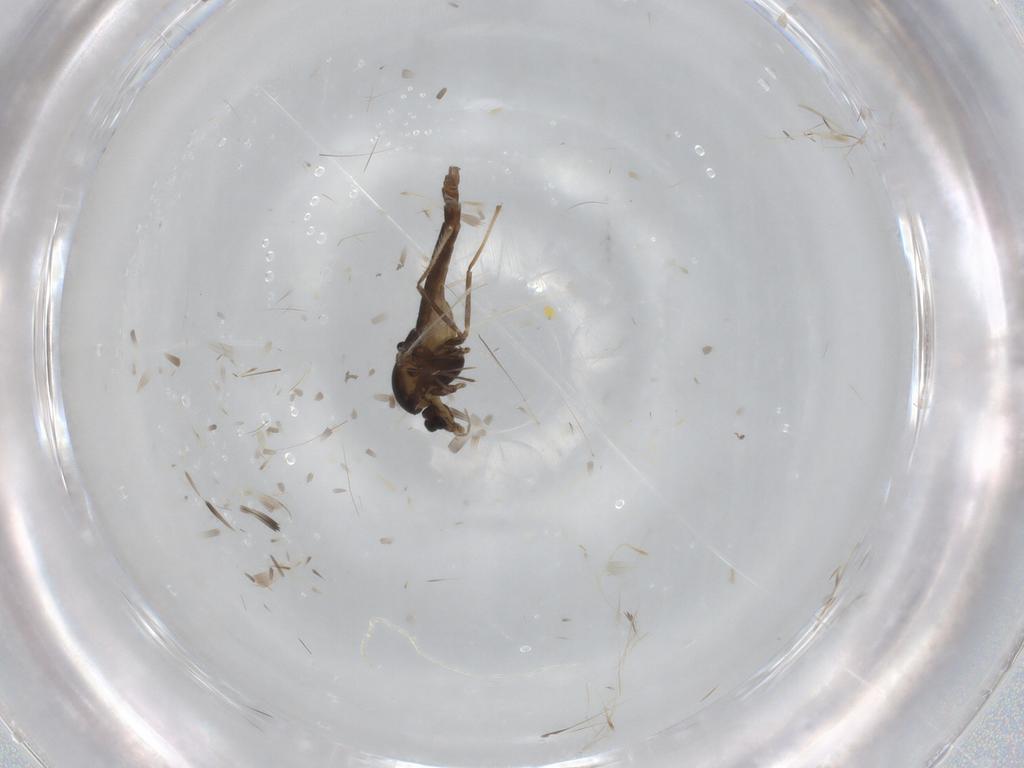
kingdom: Animalia
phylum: Arthropoda
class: Insecta
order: Diptera
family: Chironomidae
